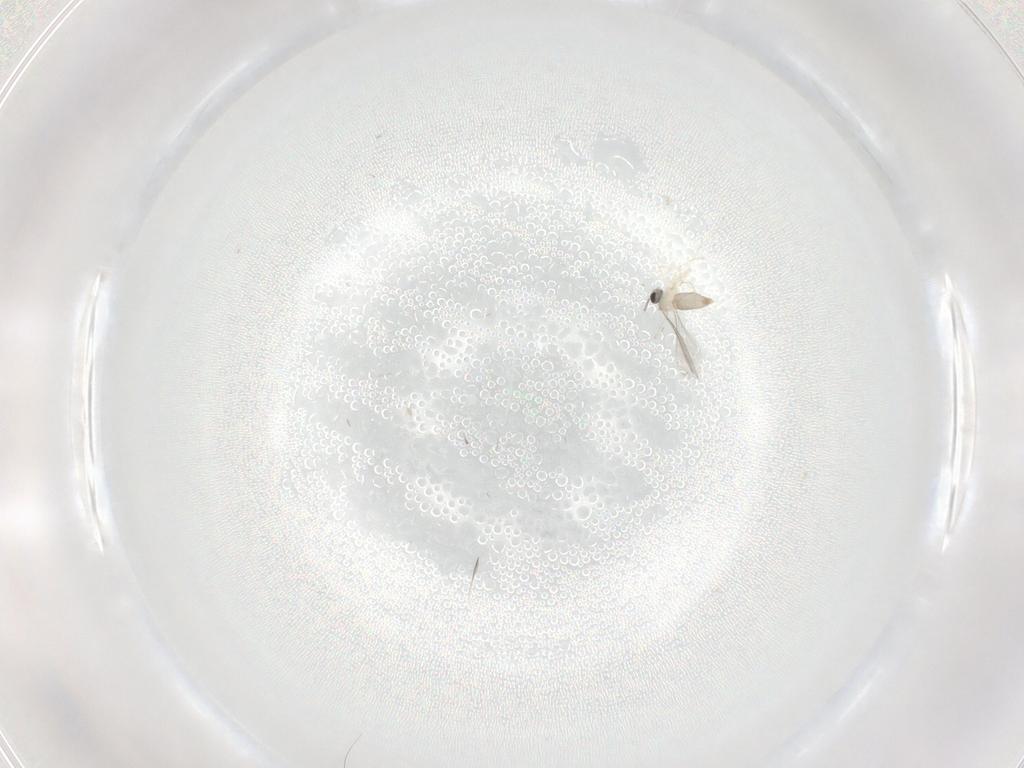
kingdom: Animalia
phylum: Arthropoda
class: Insecta
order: Diptera
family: Cecidomyiidae
